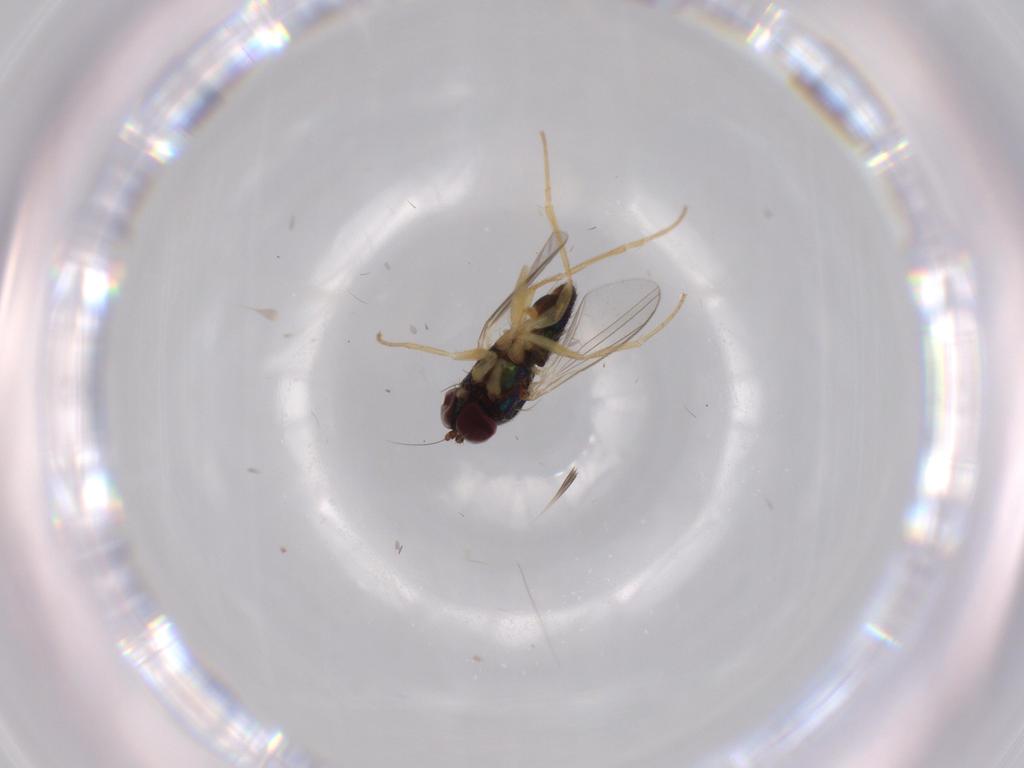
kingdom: Animalia
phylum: Arthropoda
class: Insecta
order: Diptera
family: Dolichopodidae
